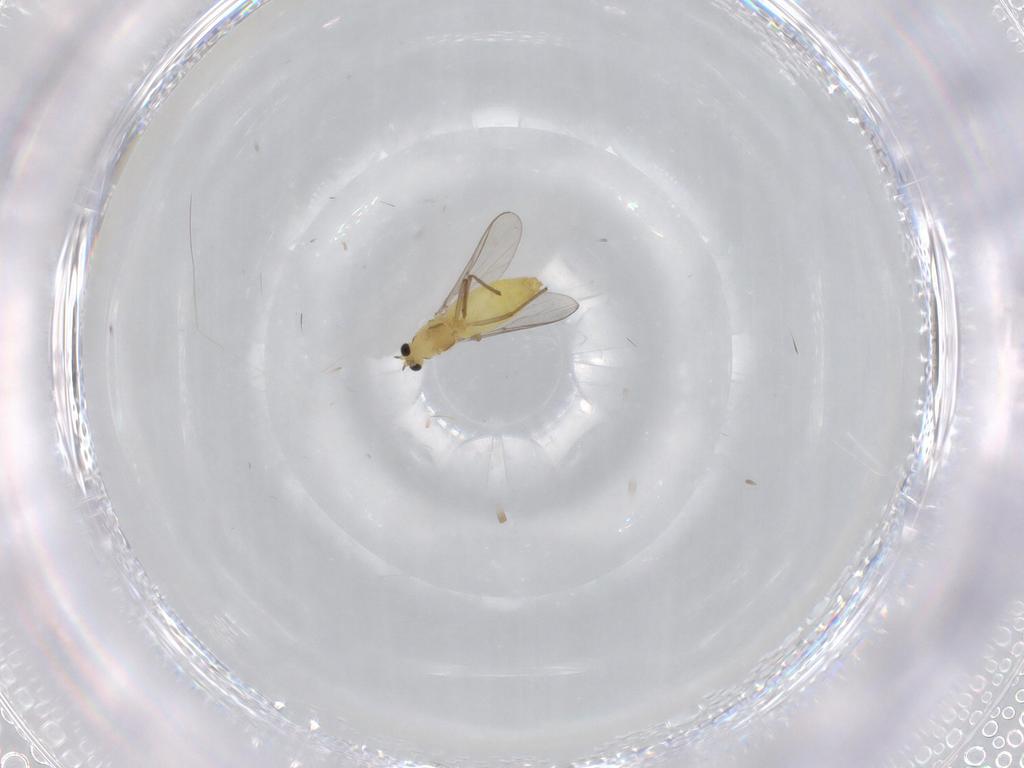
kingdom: Animalia
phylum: Arthropoda
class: Insecta
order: Diptera
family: Chironomidae
